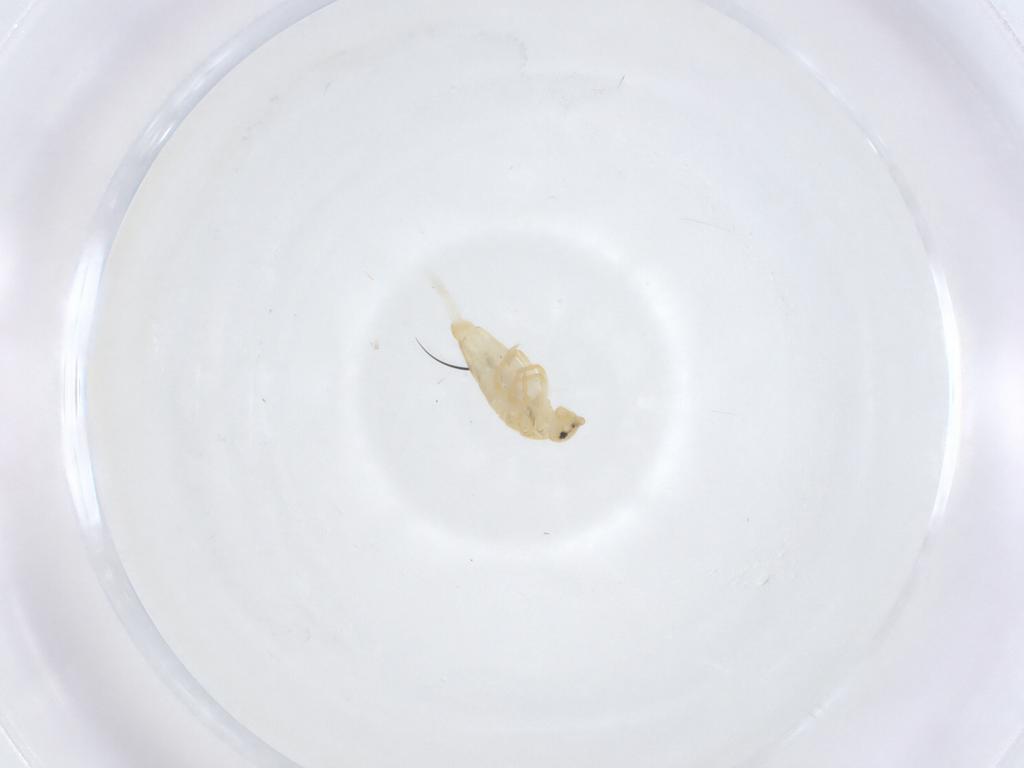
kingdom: Animalia
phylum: Arthropoda
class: Collembola
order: Entomobryomorpha
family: Entomobryidae
